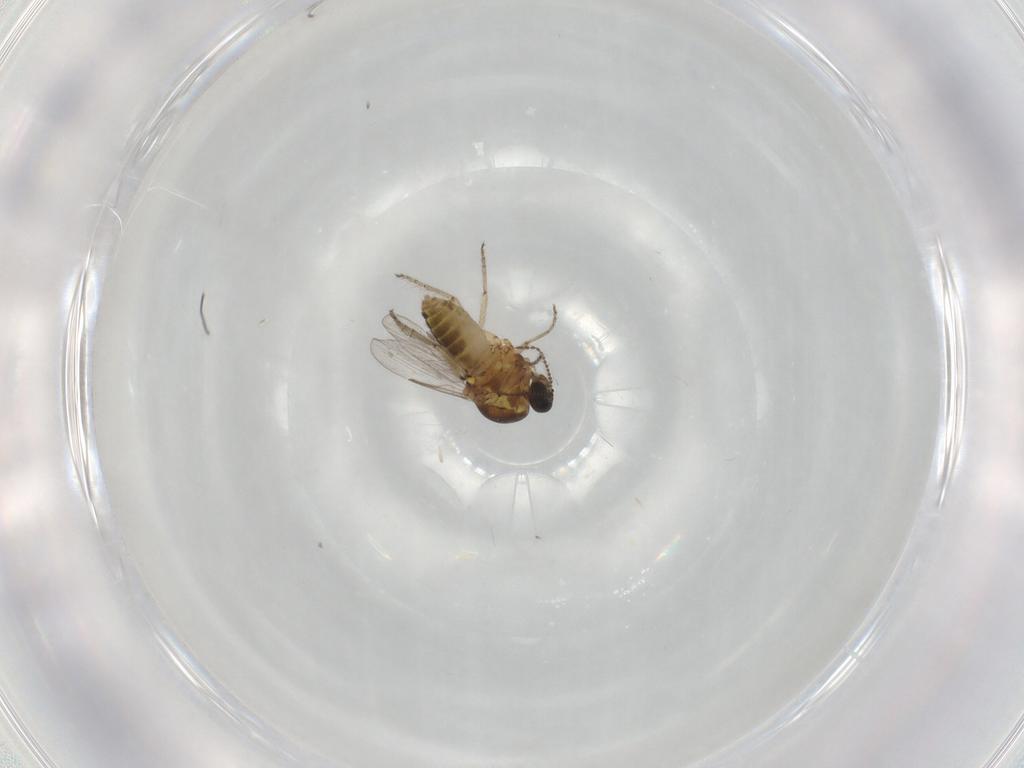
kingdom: Animalia
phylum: Arthropoda
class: Insecta
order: Diptera
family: Ceratopogonidae
